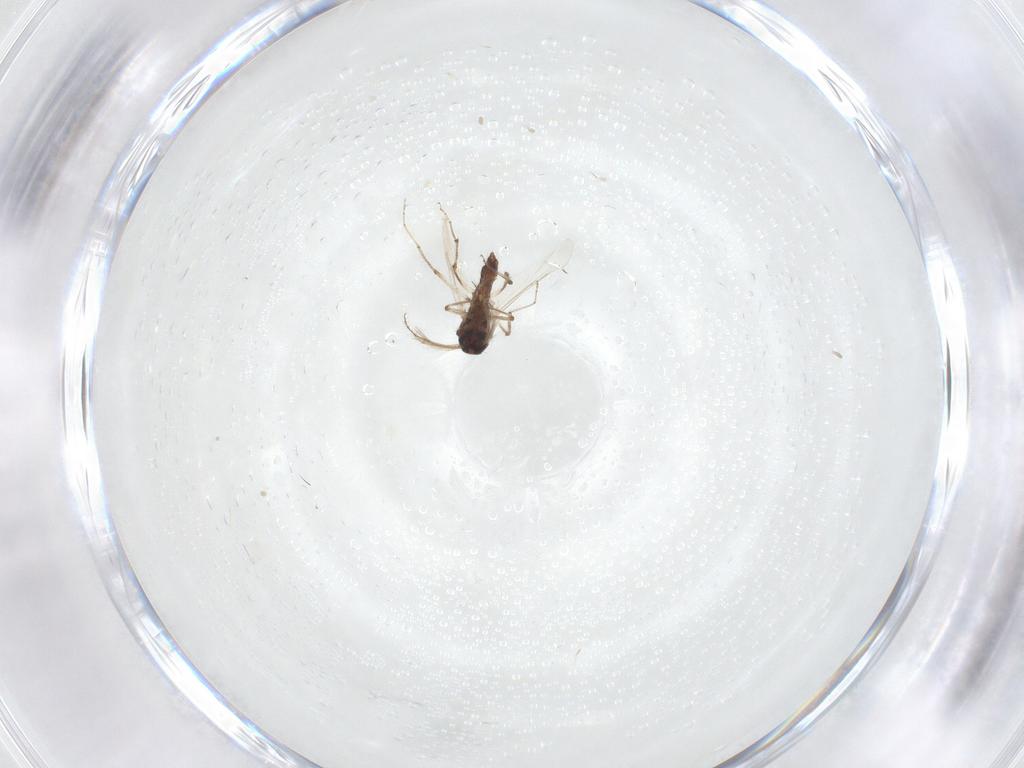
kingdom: Animalia
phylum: Arthropoda
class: Insecta
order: Diptera
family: Ceratopogonidae
